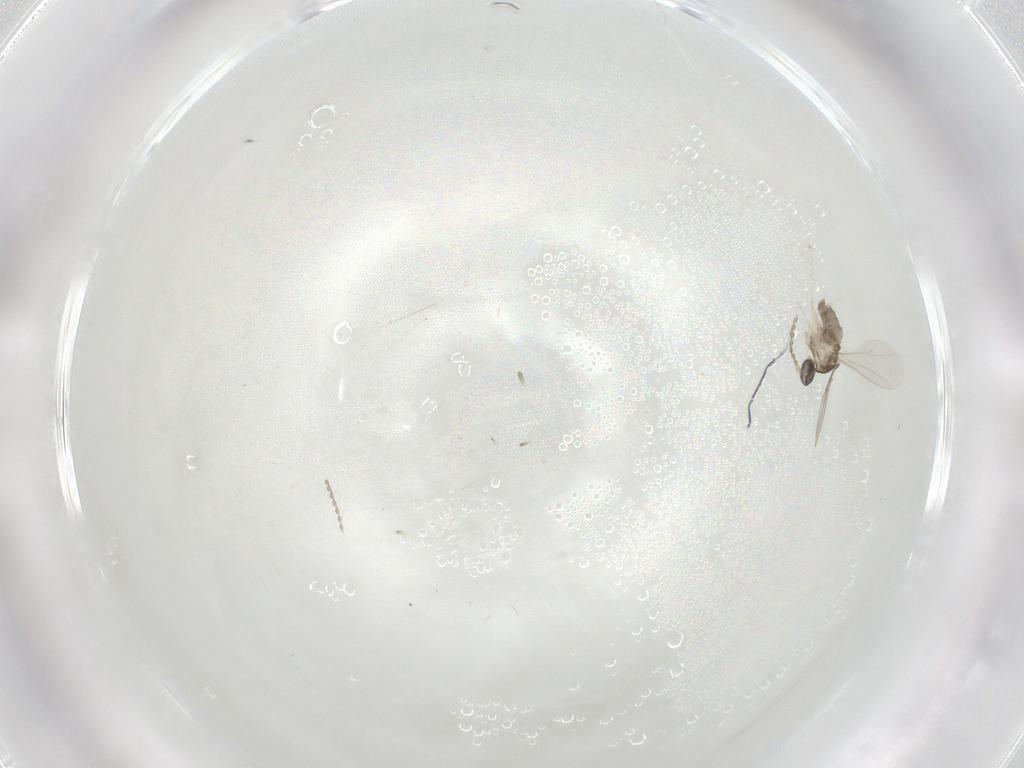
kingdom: Animalia
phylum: Arthropoda
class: Insecta
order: Diptera
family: Cecidomyiidae
